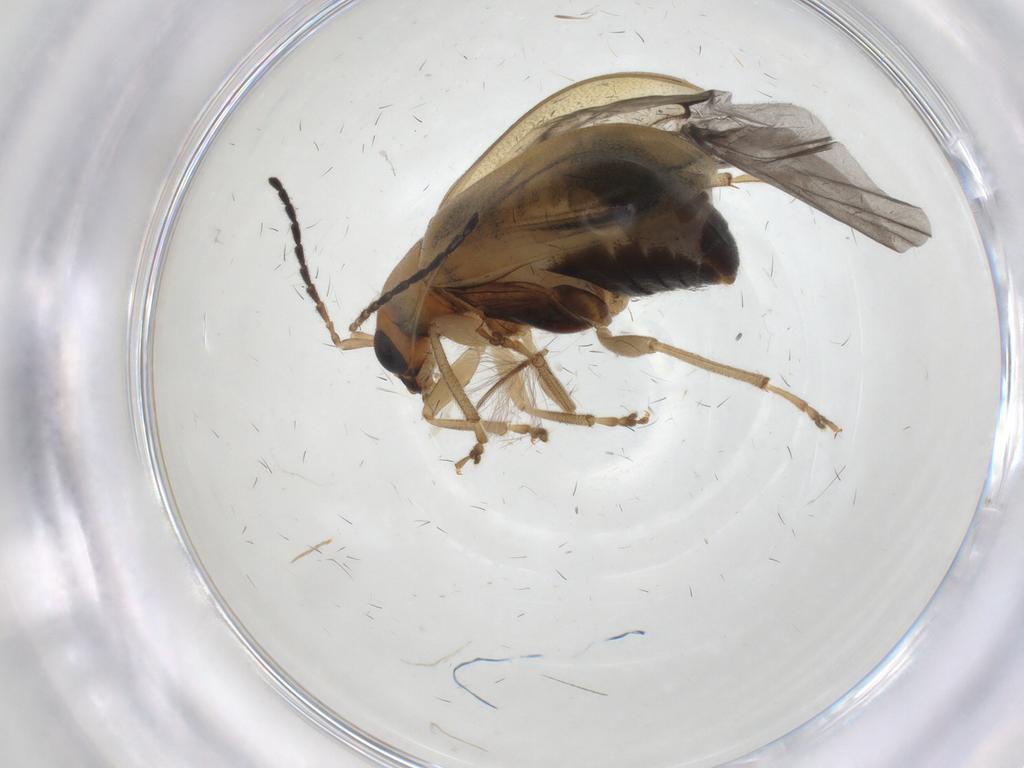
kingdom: Animalia
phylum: Arthropoda
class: Insecta
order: Coleoptera
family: Chrysomelidae
